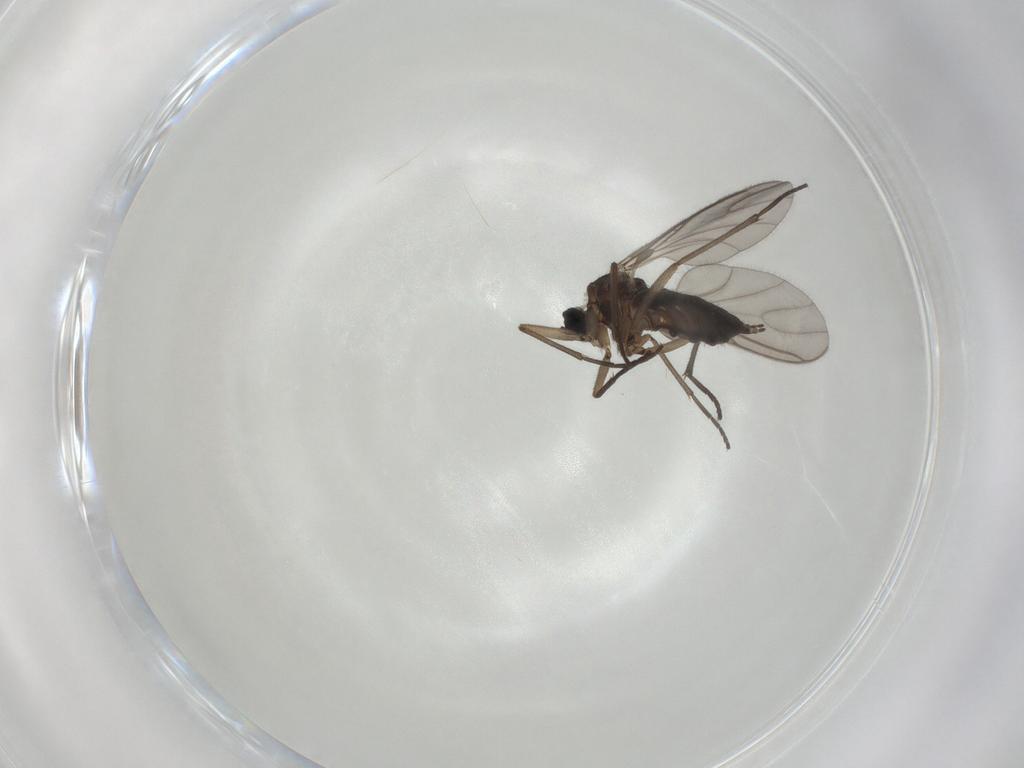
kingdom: Animalia
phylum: Arthropoda
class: Insecta
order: Diptera
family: Sciaridae
